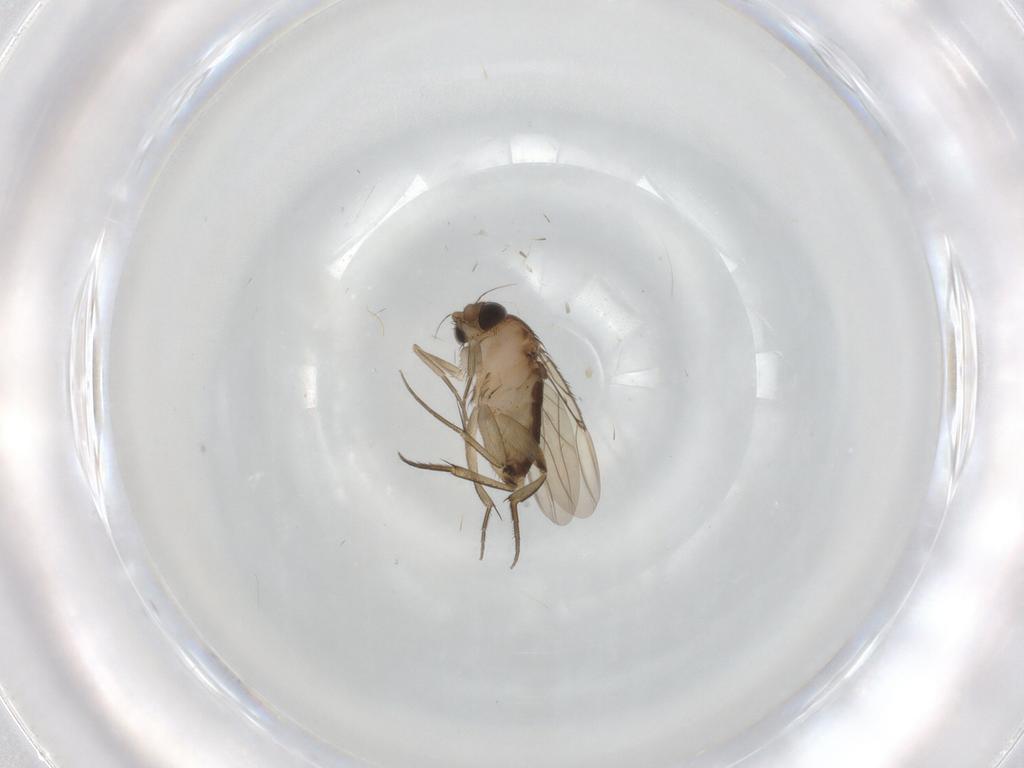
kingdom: Animalia
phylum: Arthropoda
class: Insecta
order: Diptera
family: Phoridae
